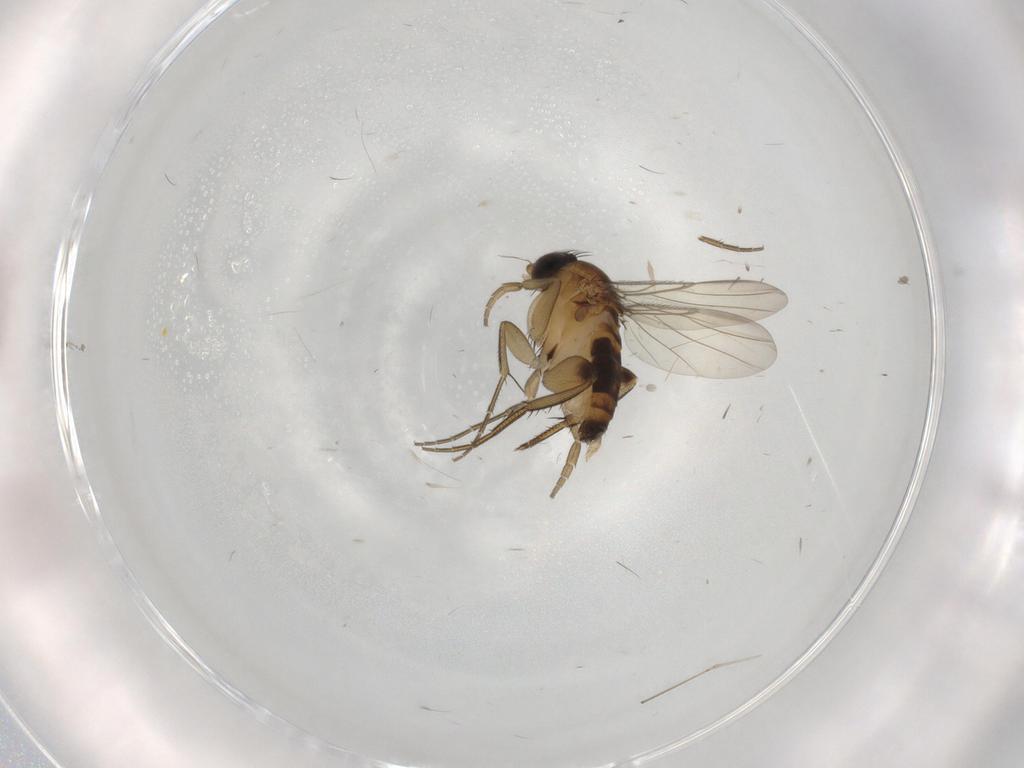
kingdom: Animalia
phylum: Arthropoda
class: Insecta
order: Diptera
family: Phoridae
